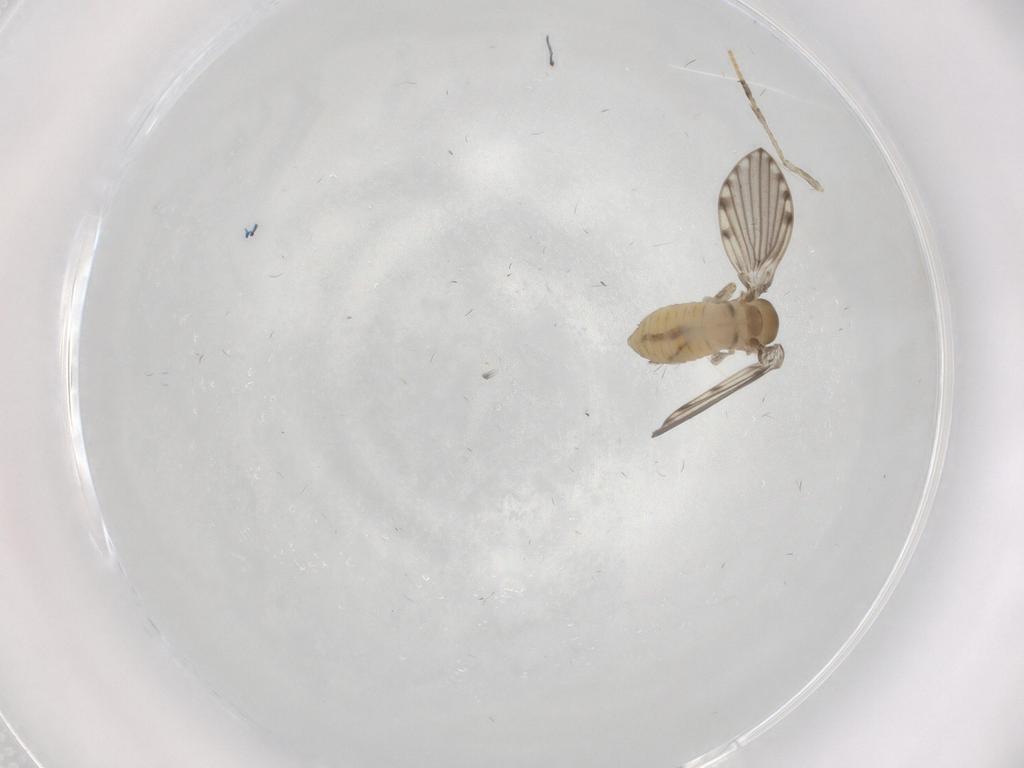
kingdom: Animalia
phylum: Arthropoda
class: Insecta
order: Diptera
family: Psychodidae
